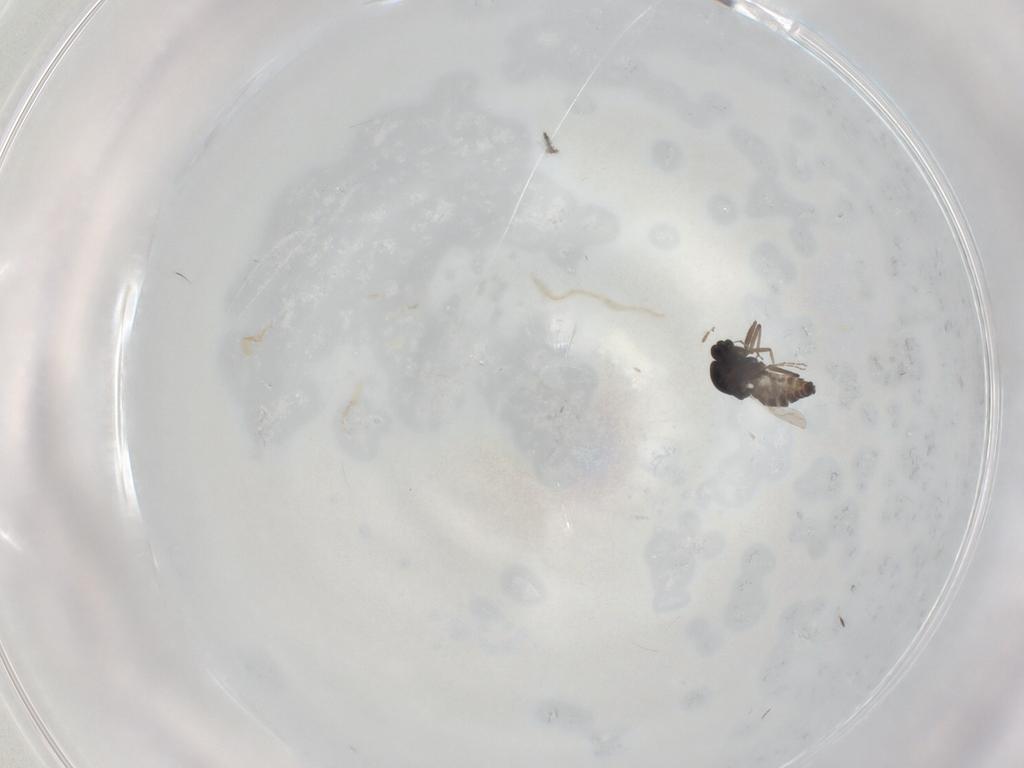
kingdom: Animalia
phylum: Arthropoda
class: Insecta
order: Diptera
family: Ceratopogonidae
